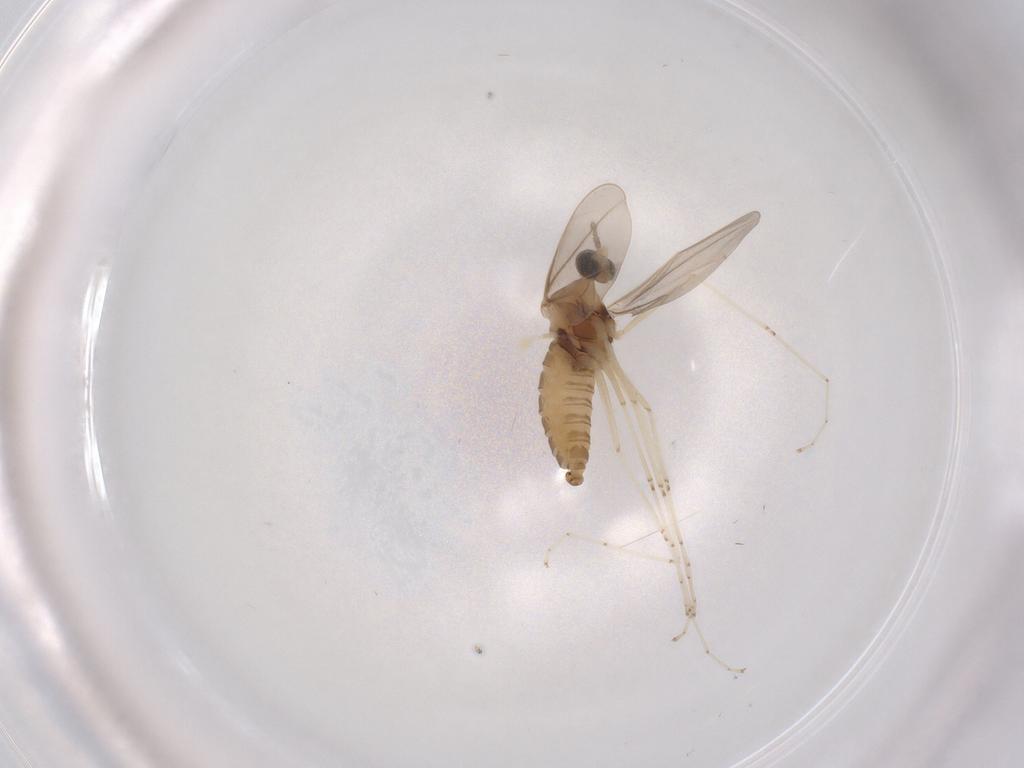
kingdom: Animalia
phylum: Arthropoda
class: Insecta
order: Diptera
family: Cecidomyiidae
